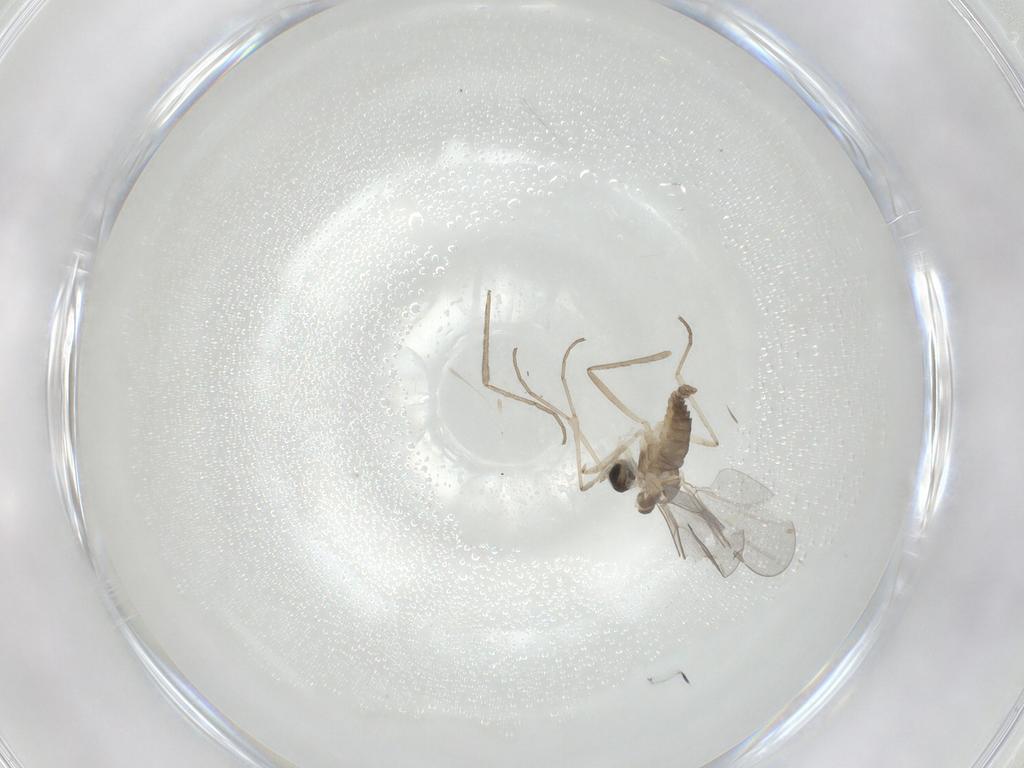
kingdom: Animalia
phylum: Arthropoda
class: Insecta
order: Diptera
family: Cecidomyiidae
